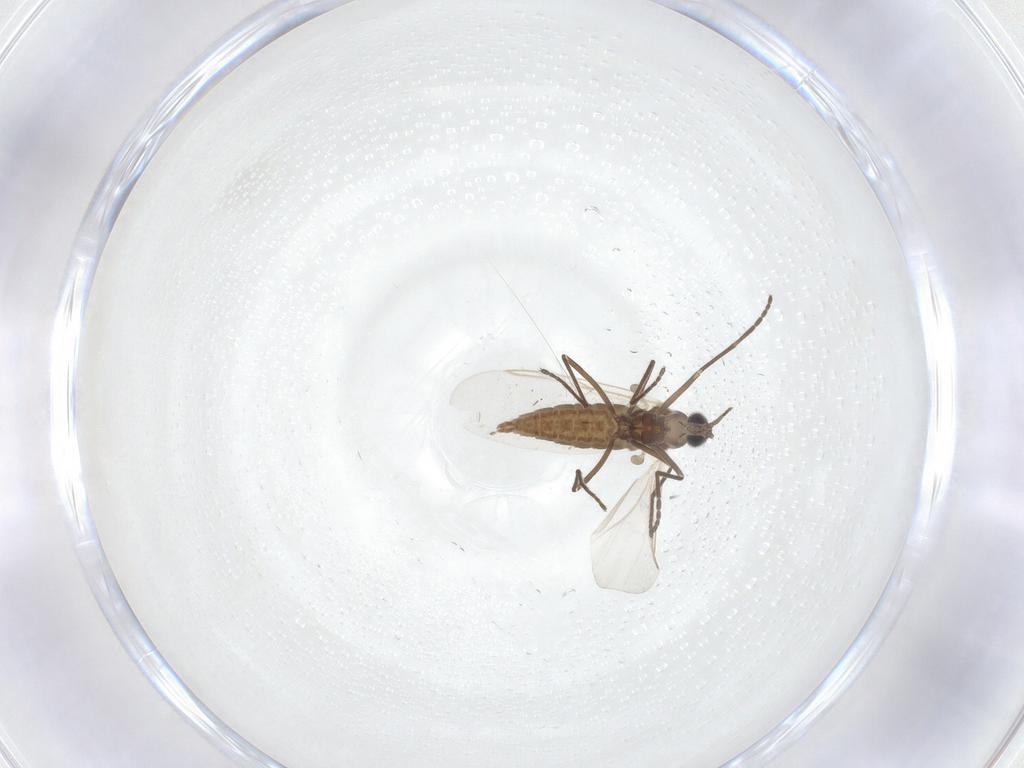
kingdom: Animalia
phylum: Arthropoda
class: Insecta
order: Diptera
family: Cecidomyiidae
